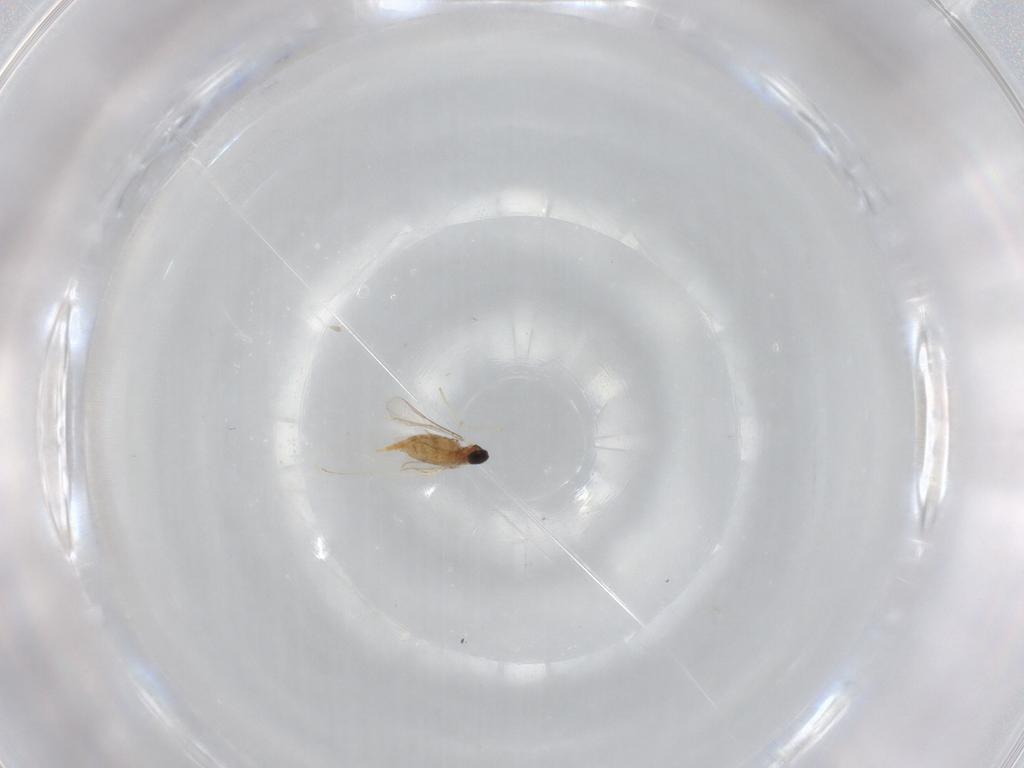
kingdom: Animalia
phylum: Arthropoda
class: Insecta
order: Diptera
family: Cecidomyiidae
